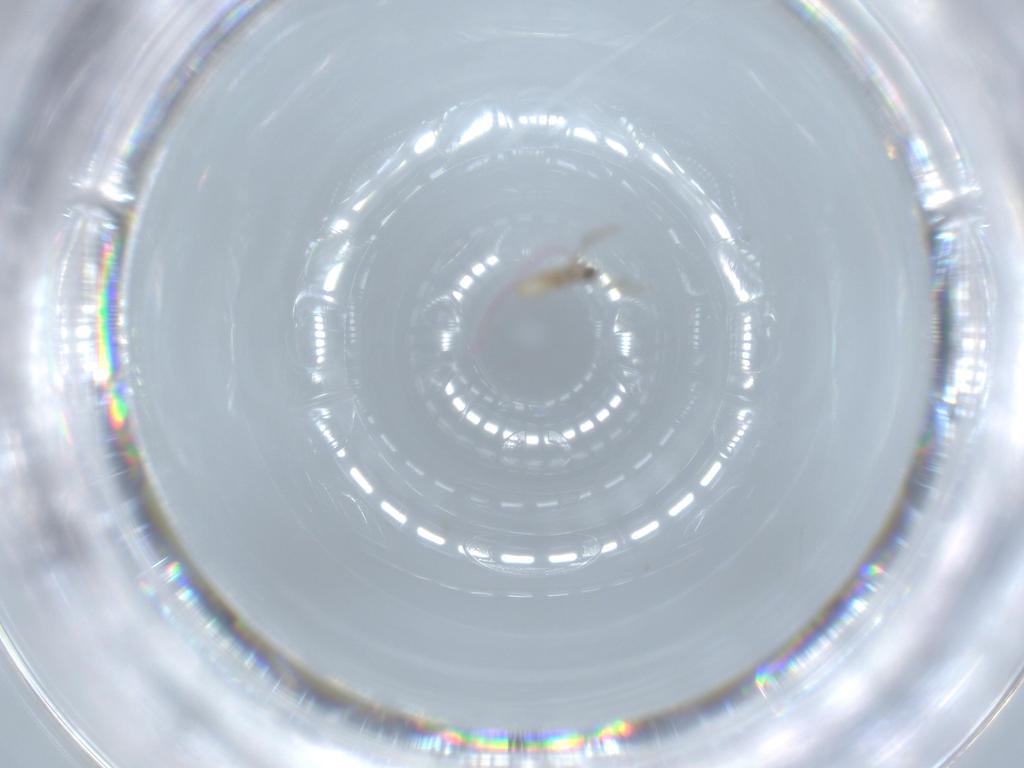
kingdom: Animalia
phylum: Arthropoda
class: Insecta
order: Diptera
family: Cecidomyiidae
